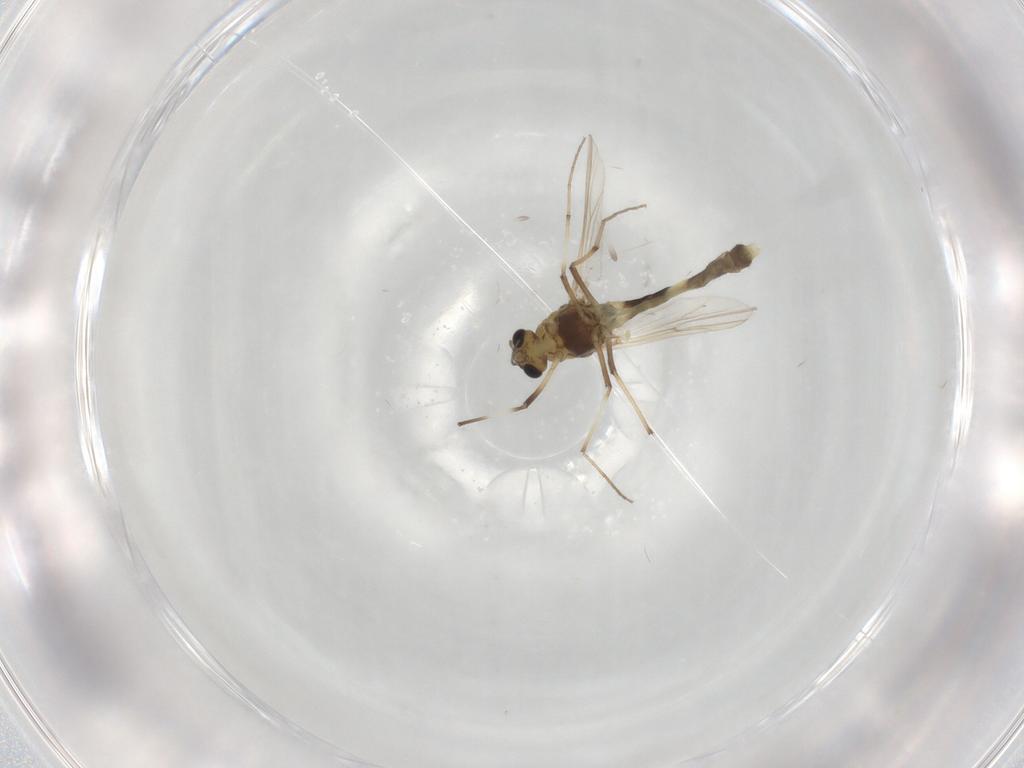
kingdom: Animalia
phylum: Arthropoda
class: Insecta
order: Diptera
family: Chironomidae
